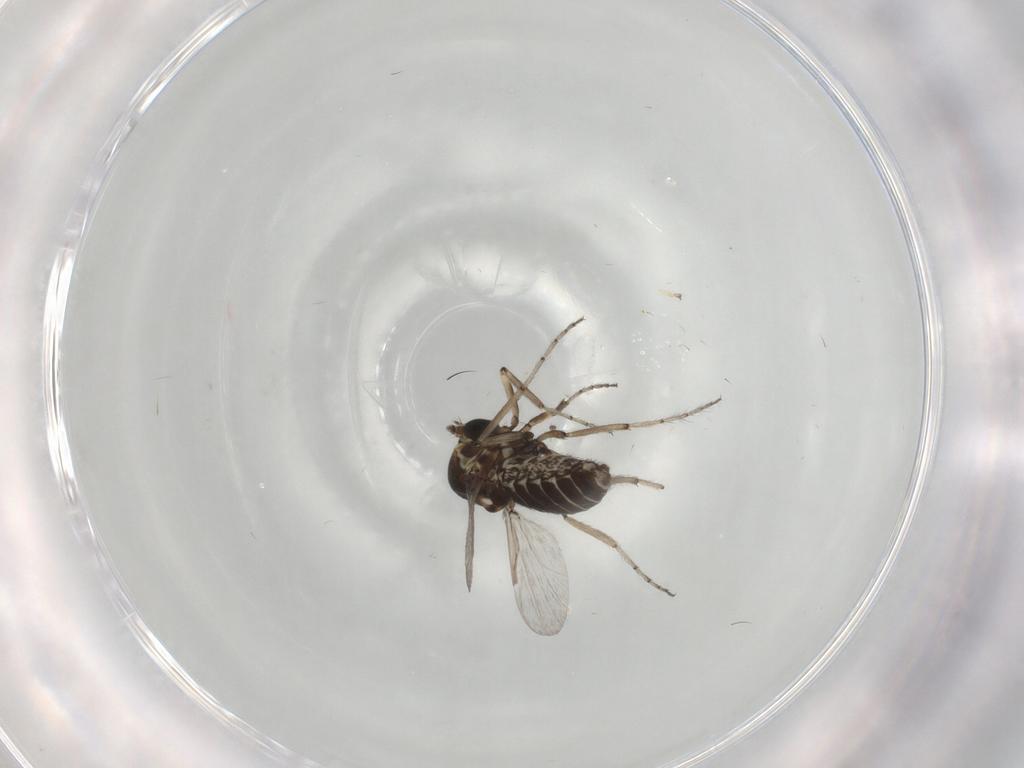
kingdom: Animalia
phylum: Arthropoda
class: Insecta
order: Diptera
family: Ceratopogonidae
